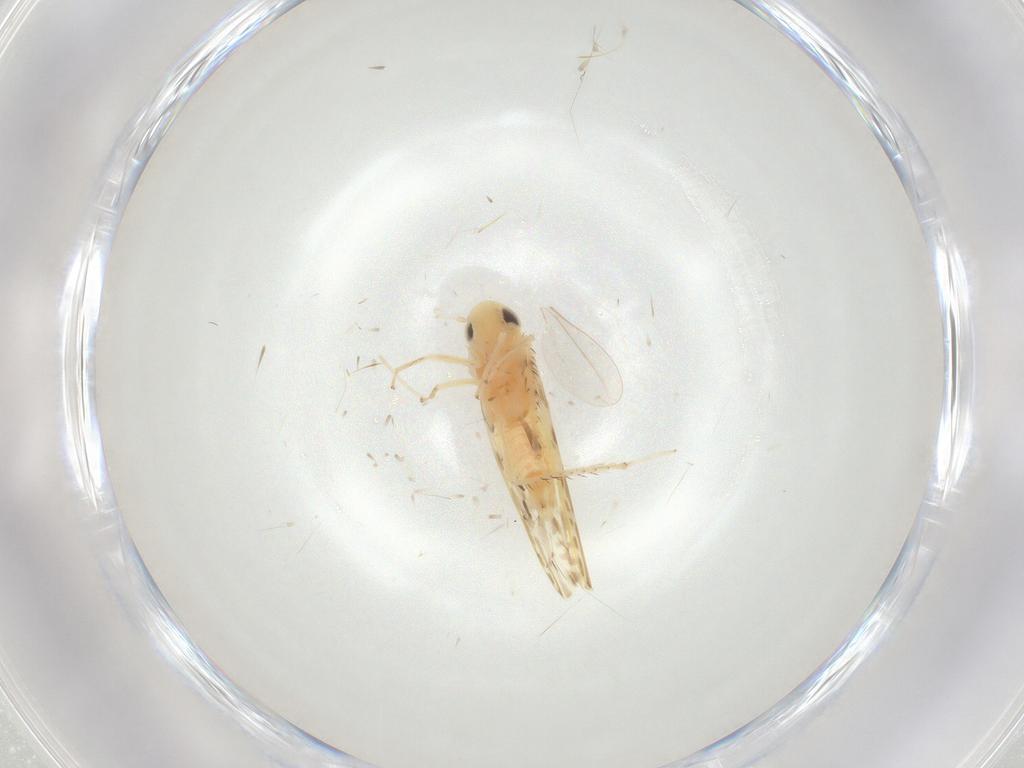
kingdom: Animalia
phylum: Arthropoda
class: Insecta
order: Hemiptera
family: Cicadellidae
